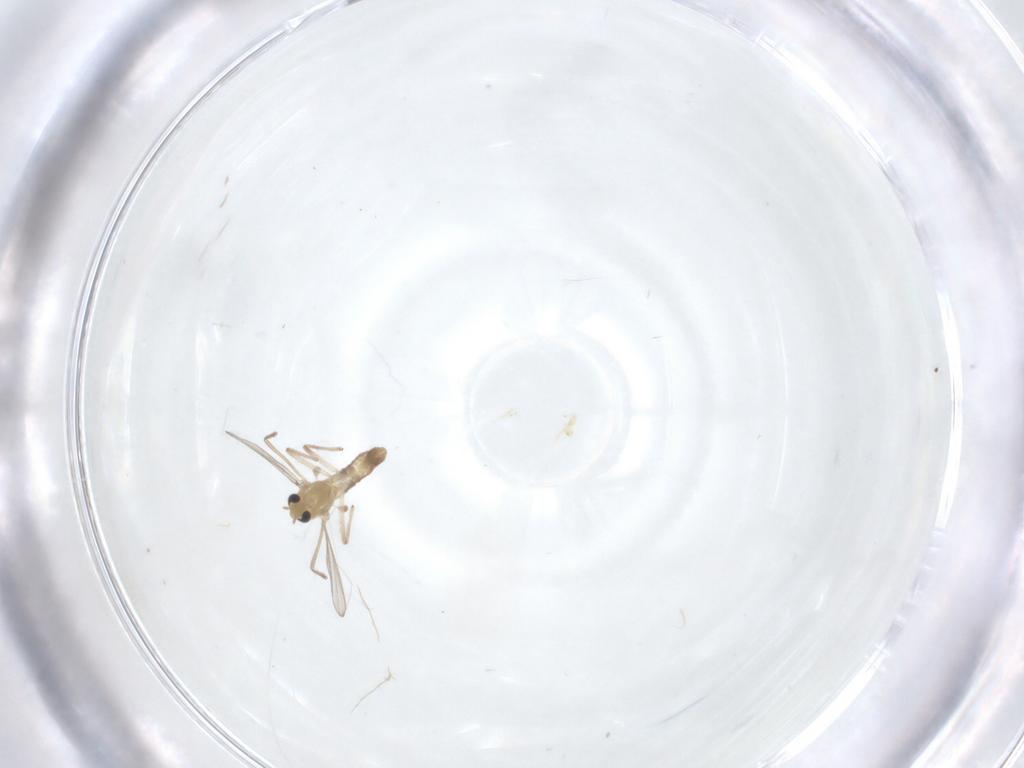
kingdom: Animalia
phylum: Arthropoda
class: Insecta
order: Diptera
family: Chironomidae
